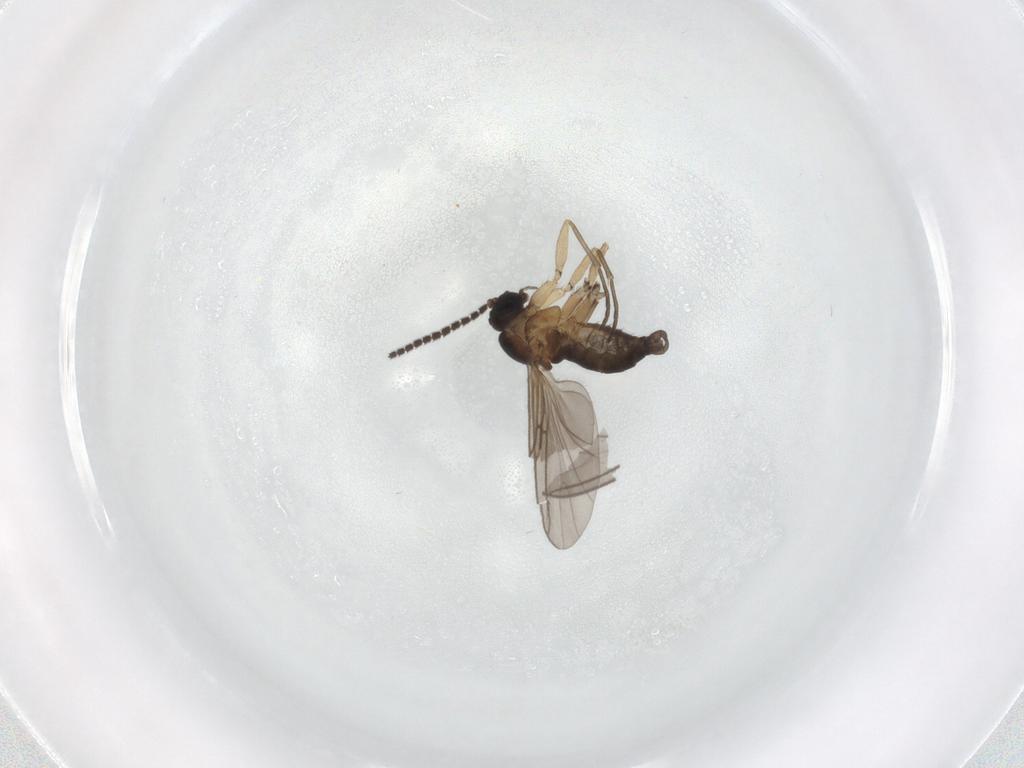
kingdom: Animalia
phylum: Arthropoda
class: Insecta
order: Diptera
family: Sciaridae
